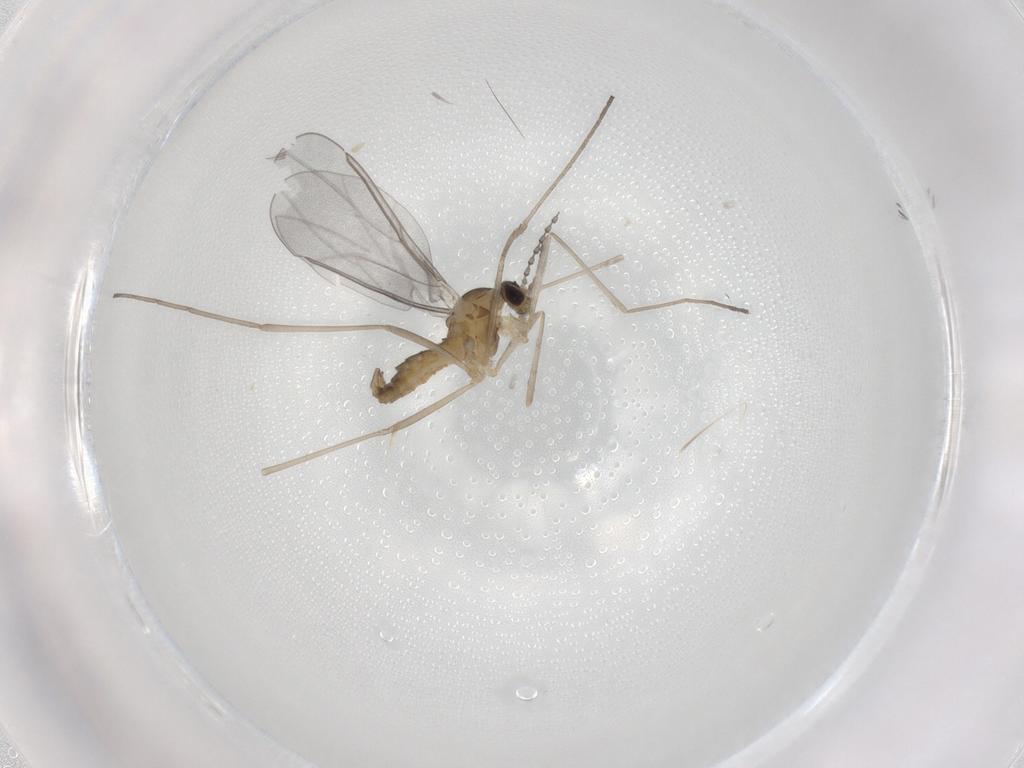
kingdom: Animalia
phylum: Arthropoda
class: Insecta
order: Diptera
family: Cecidomyiidae
